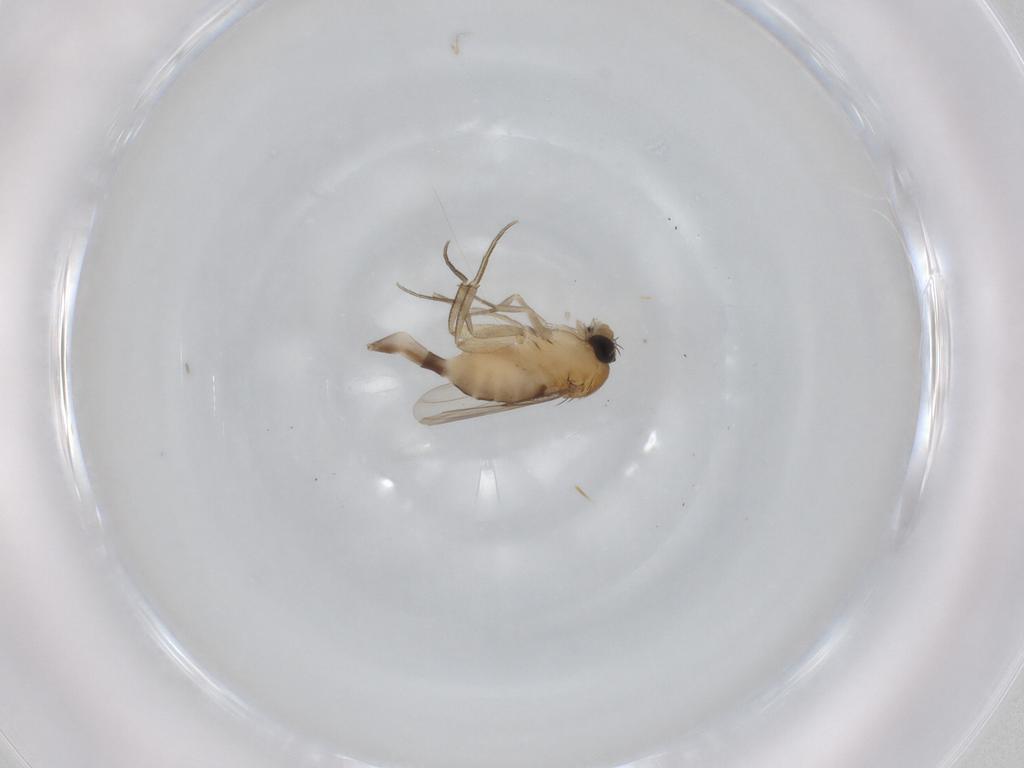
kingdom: Animalia
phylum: Arthropoda
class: Insecta
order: Diptera
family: Phoridae
